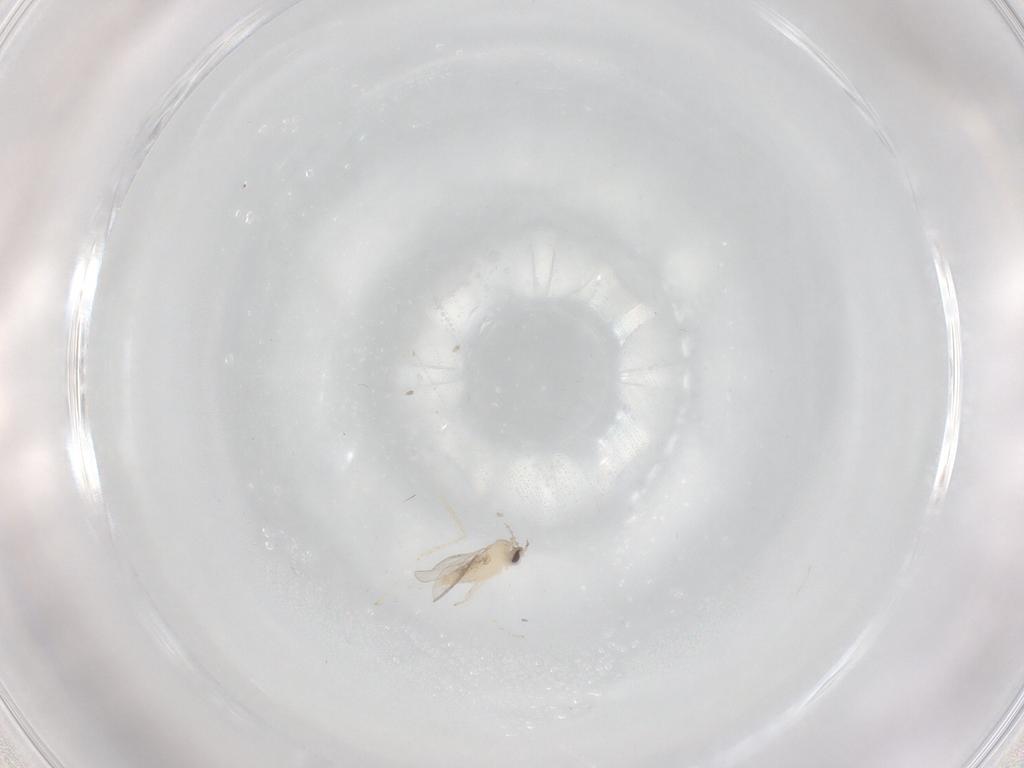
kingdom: Animalia
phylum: Arthropoda
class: Insecta
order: Diptera
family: Cecidomyiidae
